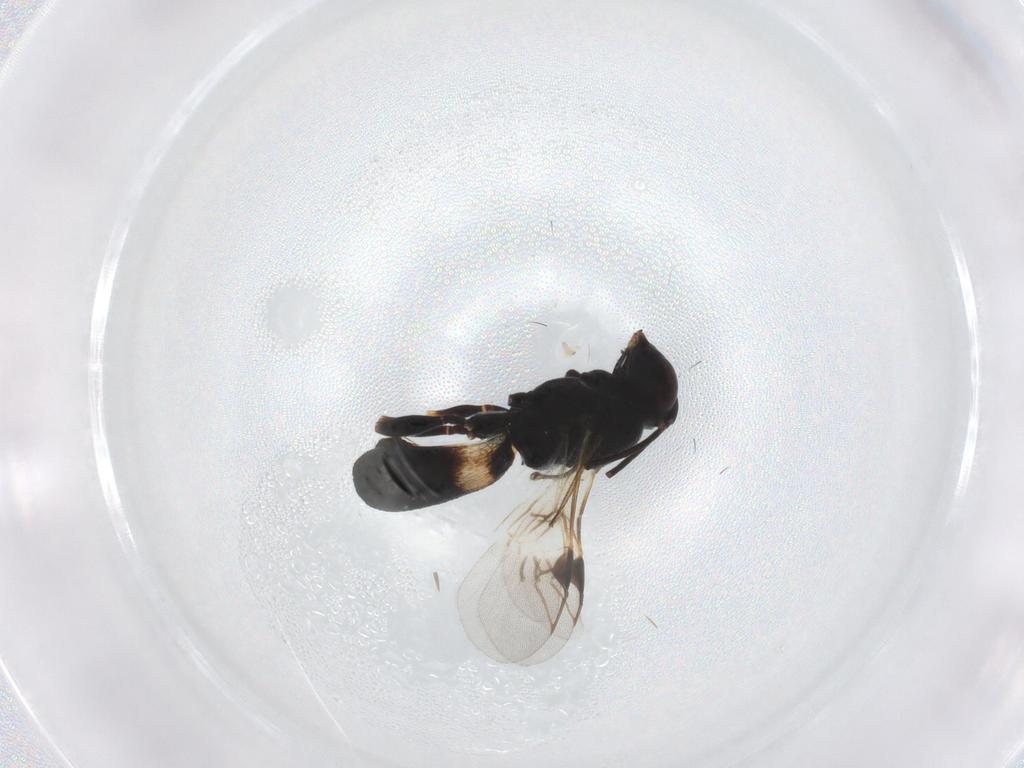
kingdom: Animalia
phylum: Arthropoda
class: Insecta
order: Hymenoptera
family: Braconidae
